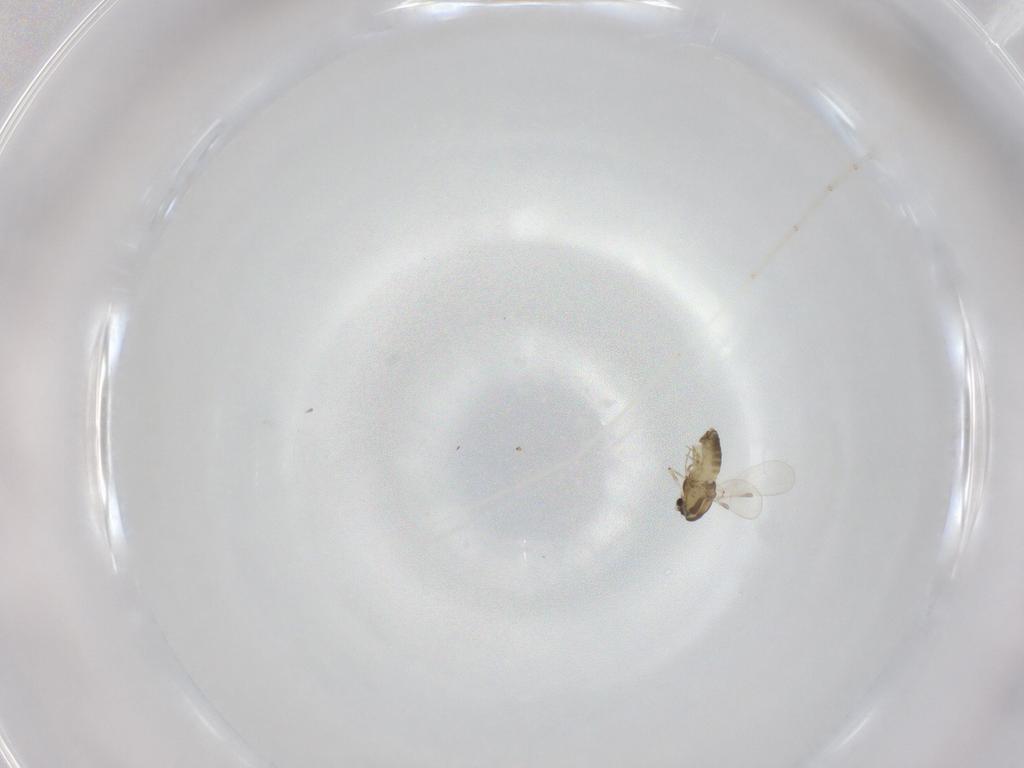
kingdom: Animalia
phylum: Arthropoda
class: Insecta
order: Diptera
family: Chironomidae
